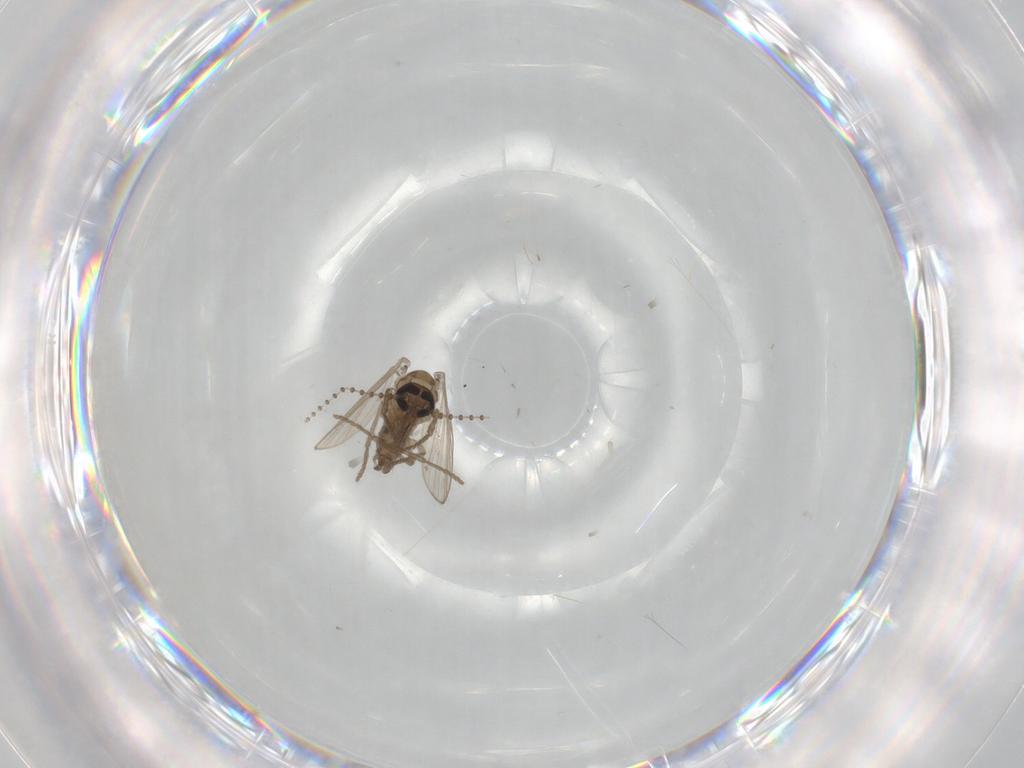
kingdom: Animalia
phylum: Arthropoda
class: Insecta
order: Diptera
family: Psychodidae
